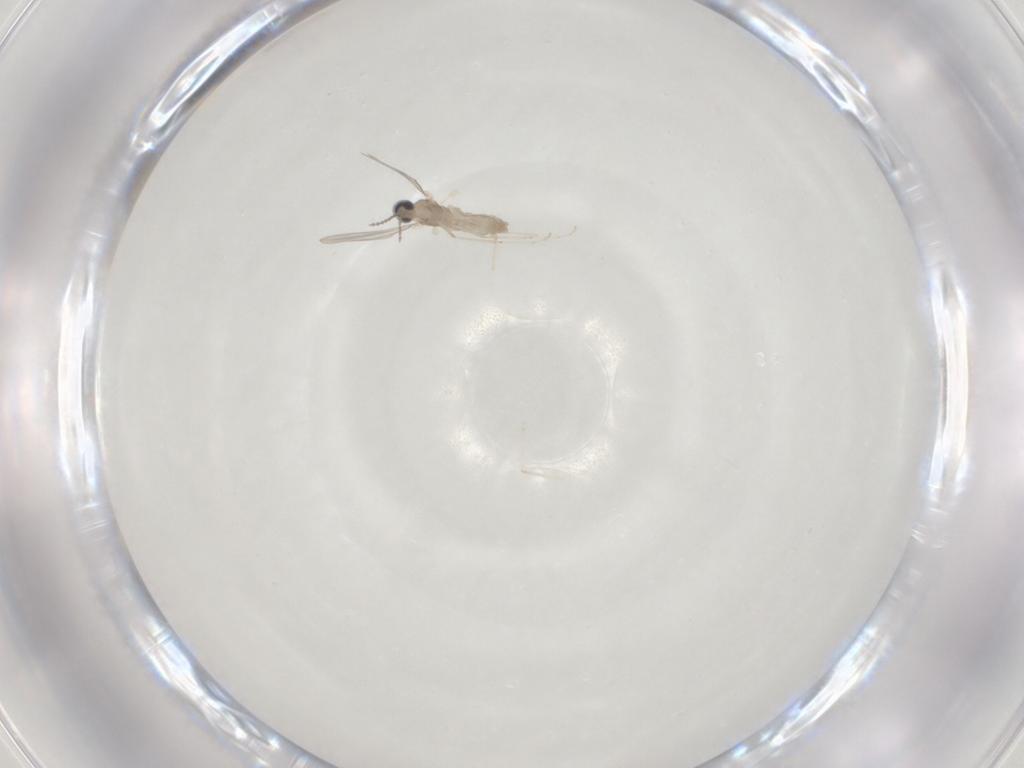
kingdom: Animalia
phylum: Arthropoda
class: Insecta
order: Diptera
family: Cecidomyiidae
